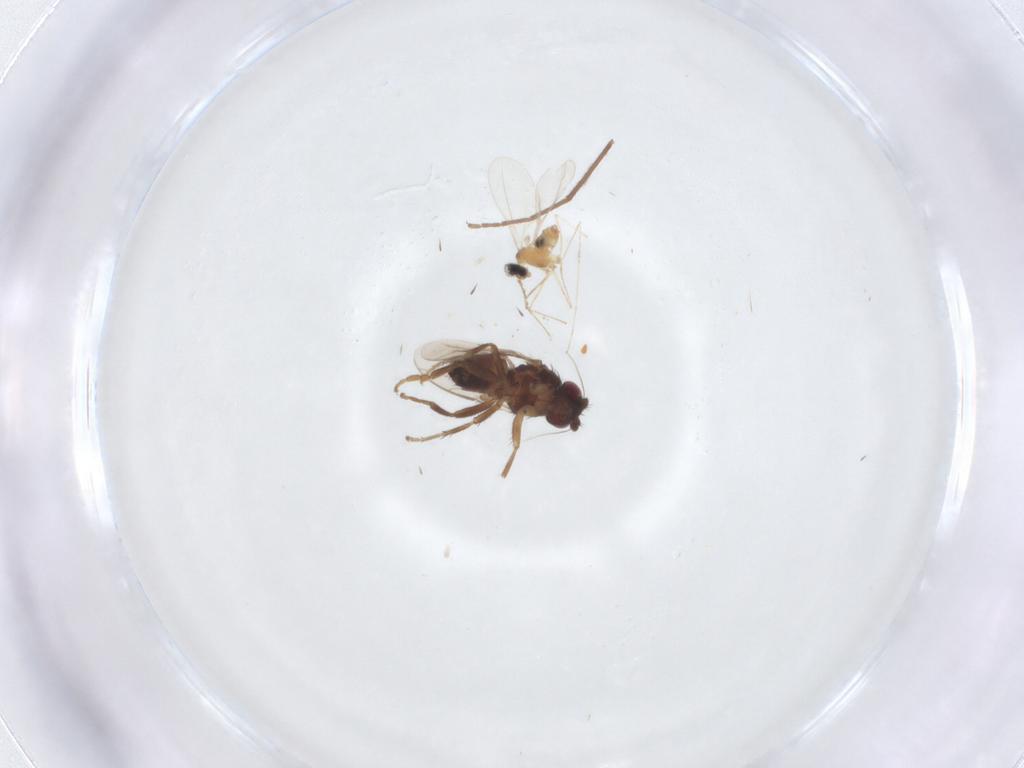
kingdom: Animalia
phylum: Arthropoda
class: Insecta
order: Diptera
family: Sphaeroceridae
